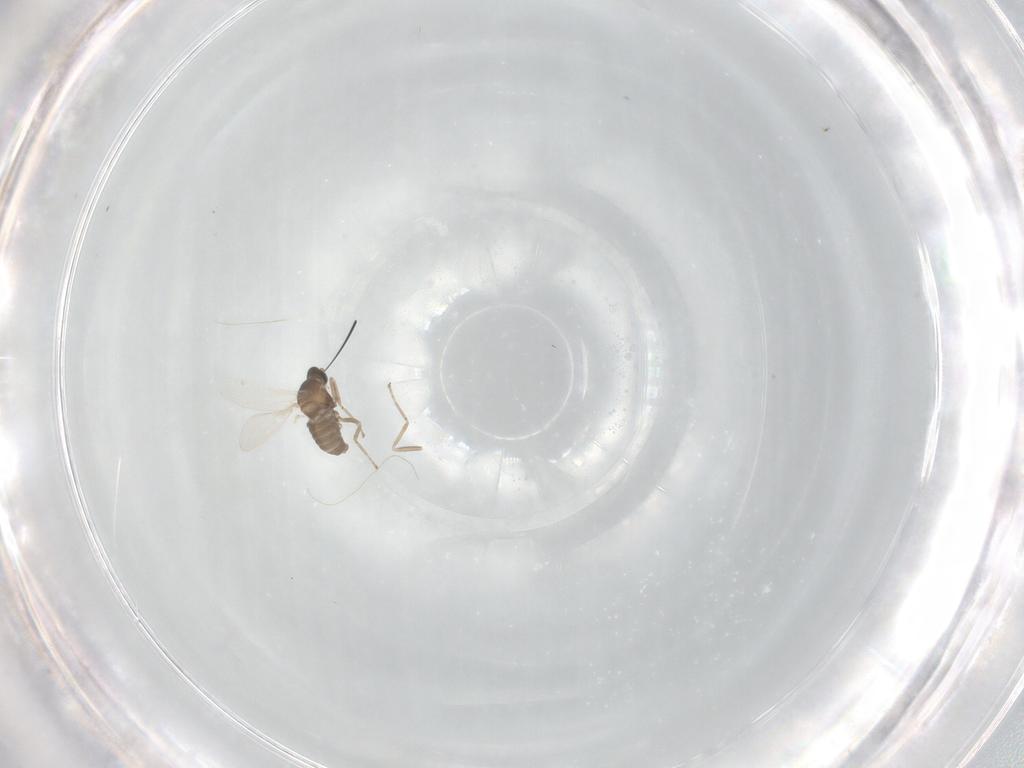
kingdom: Animalia
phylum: Arthropoda
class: Insecta
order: Diptera
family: Cecidomyiidae
